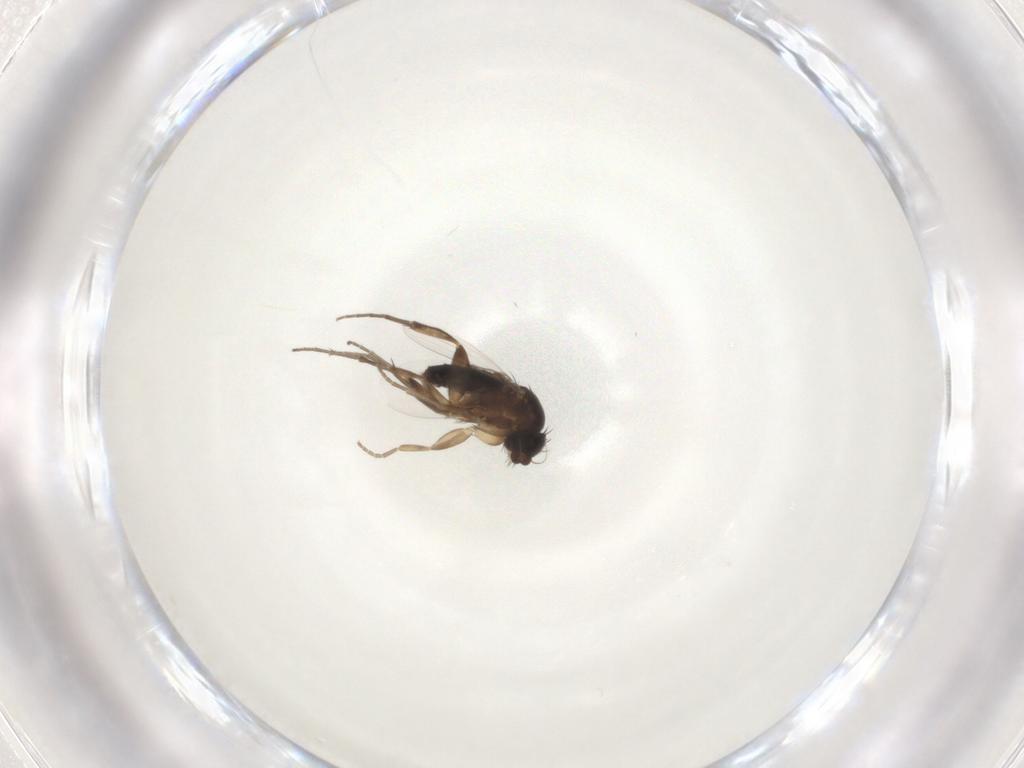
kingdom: Animalia
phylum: Arthropoda
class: Insecta
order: Diptera
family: Phoridae
